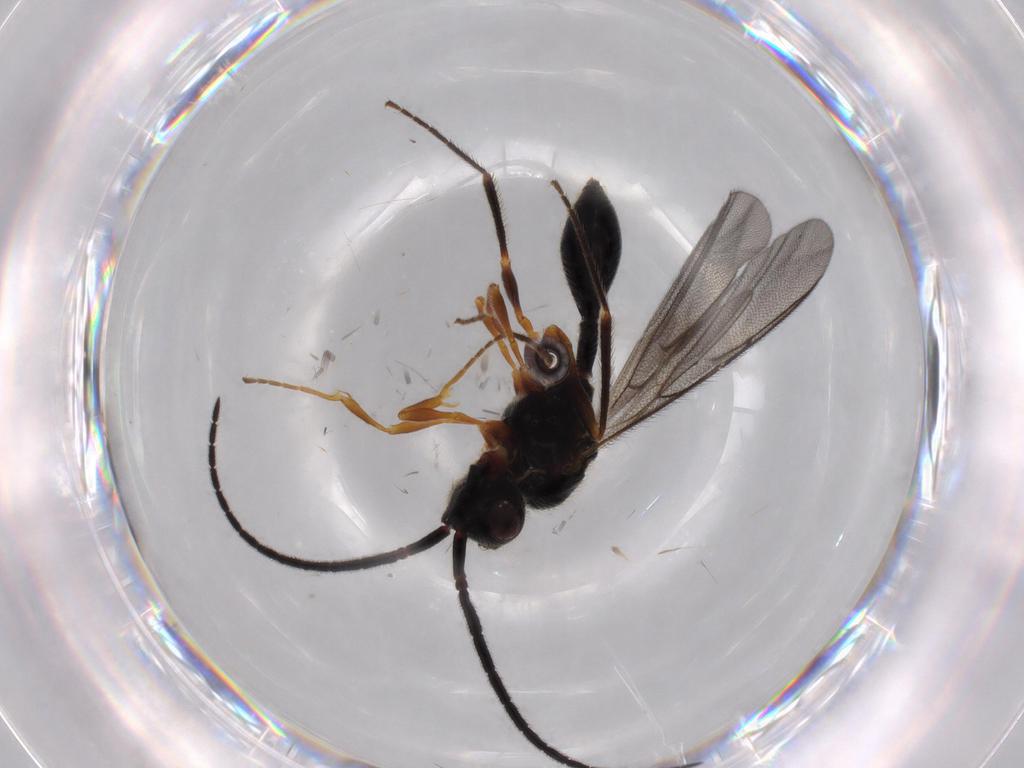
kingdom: Animalia
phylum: Arthropoda
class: Insecta
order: Hymenoptera
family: Diapriidae
